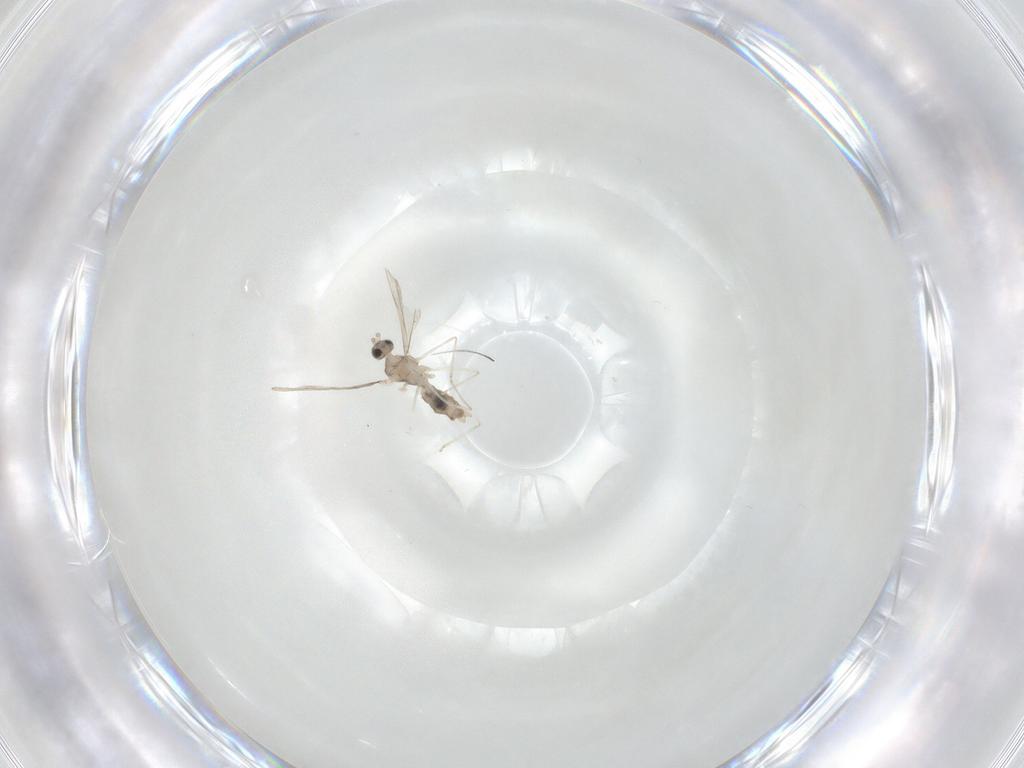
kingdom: Animalia
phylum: Arthropoda
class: Insecta
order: Diptera
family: Cecidomyiidae
